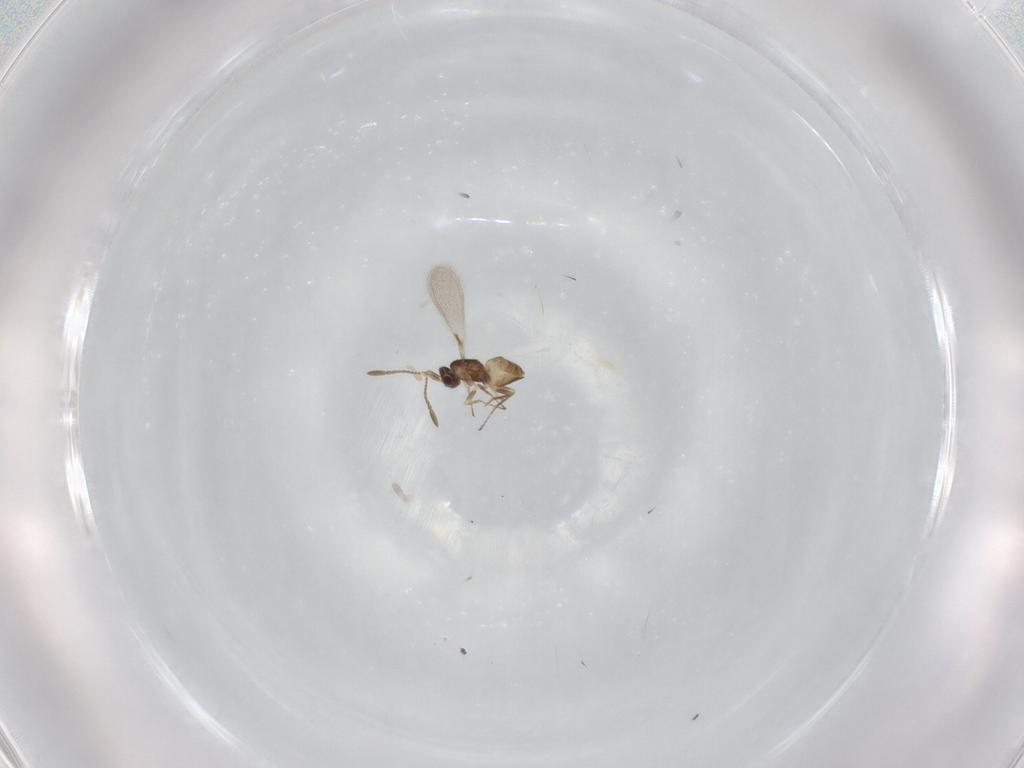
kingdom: Animalia
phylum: Arthropoda
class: Insecta
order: Hymenoptera
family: Mymaridae
